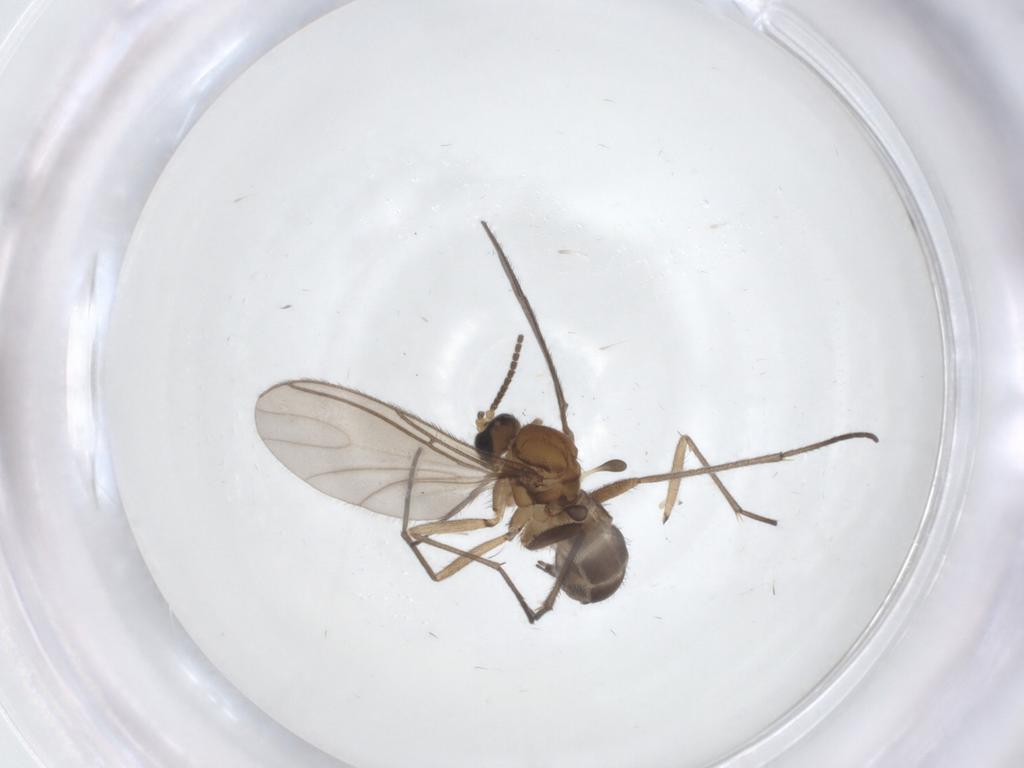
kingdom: Animalia
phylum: Arthropoda
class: Insecta
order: Diptera
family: Sciaridae
